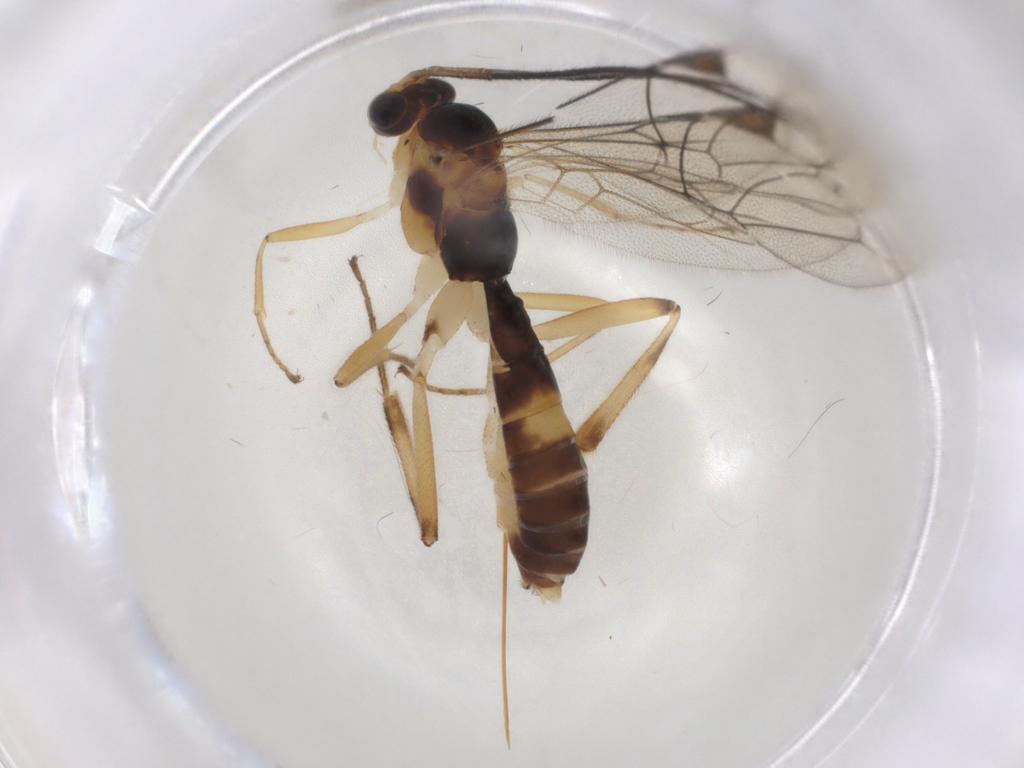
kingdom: Animalia
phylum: Arthropoda
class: Insecta
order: Hymenoptera
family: Ichneumonidae
